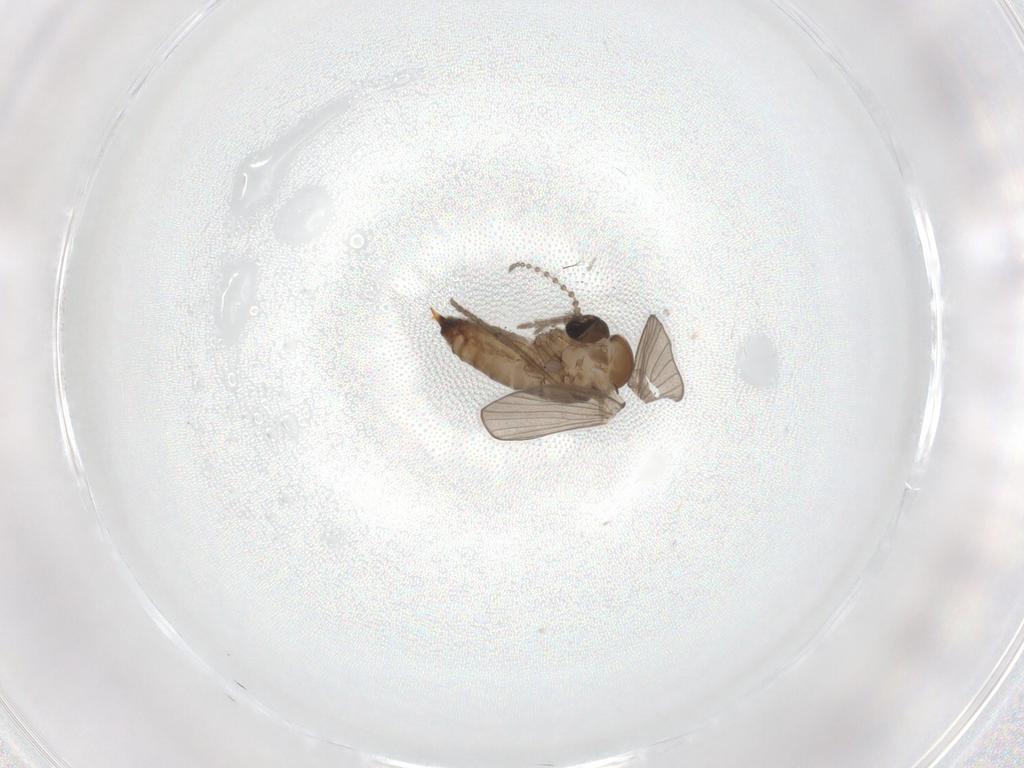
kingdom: Animalia
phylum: Arthropoda
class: Insecta
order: Diptera
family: Psychodidae
